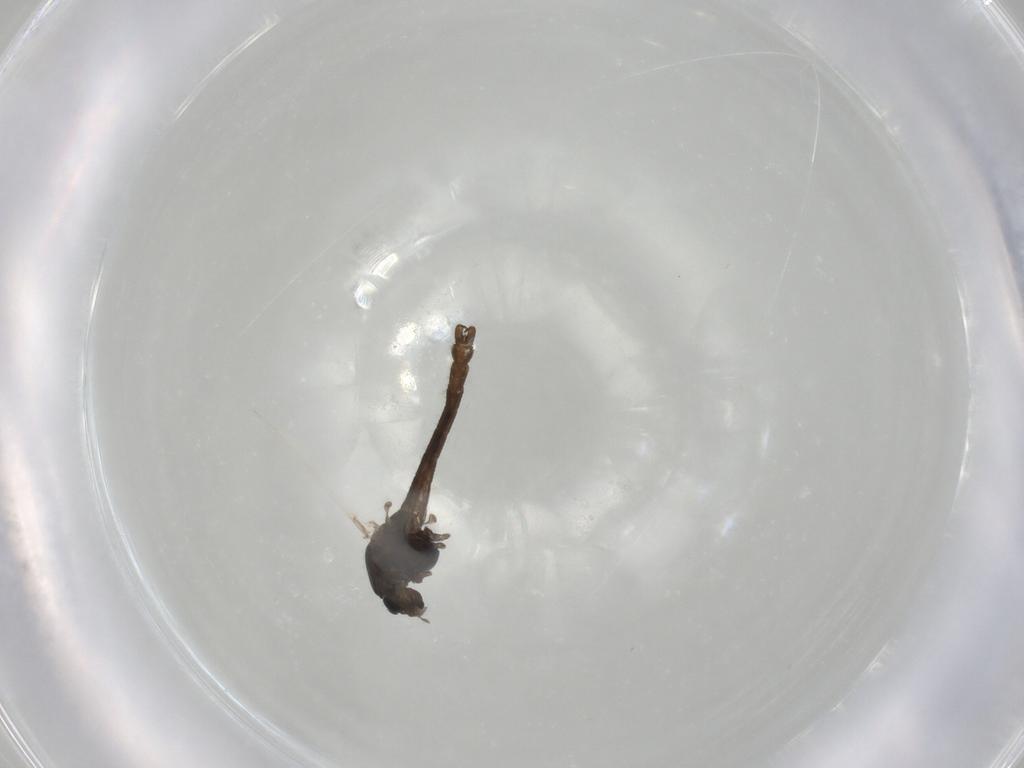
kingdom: Animalia
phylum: Arthropoda
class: Insecta
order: Diptera
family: Chironomidae
